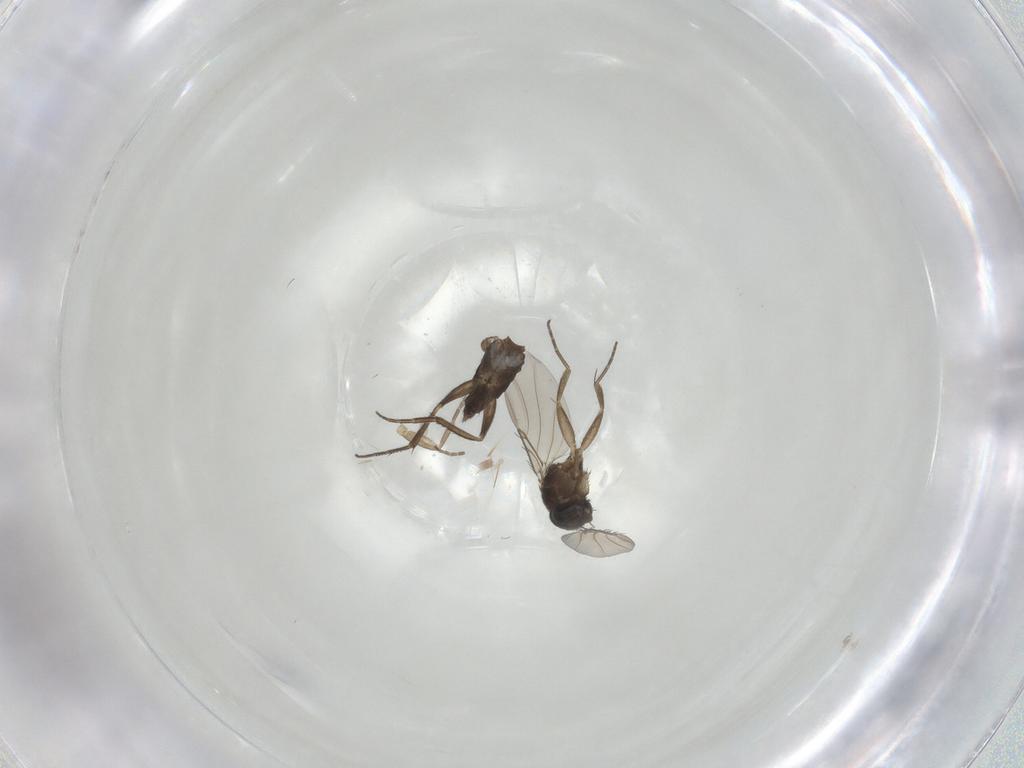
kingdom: Animalia
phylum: Arthropoda
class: Insecta
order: Diptera
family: Phoridae
